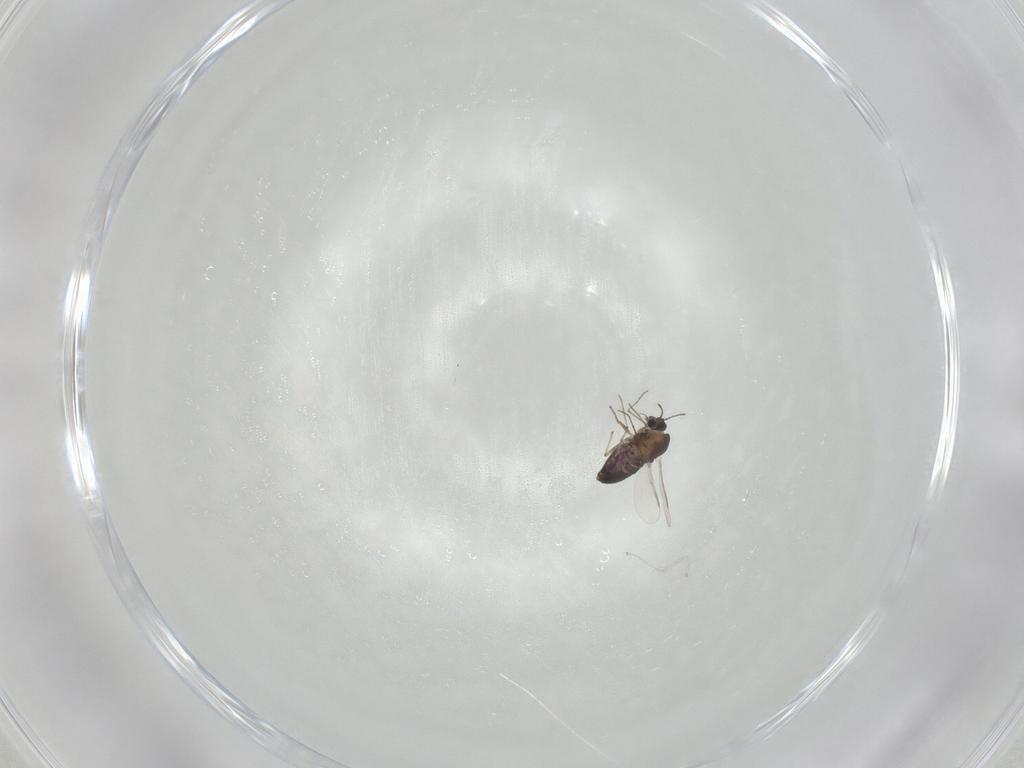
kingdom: Animalia
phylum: Arthropoda
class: Insecta
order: Diptera
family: Cecidomyiidae
